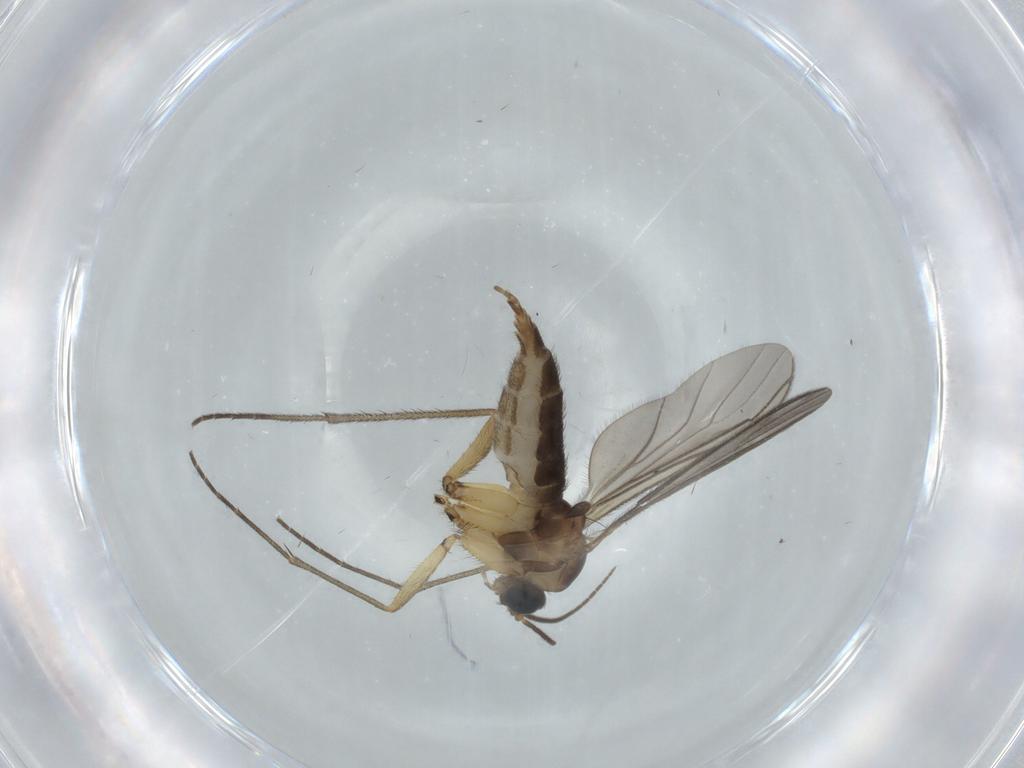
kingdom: Animalia
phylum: Arthropoda
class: Insecta
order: Diptera
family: Sciaridae
